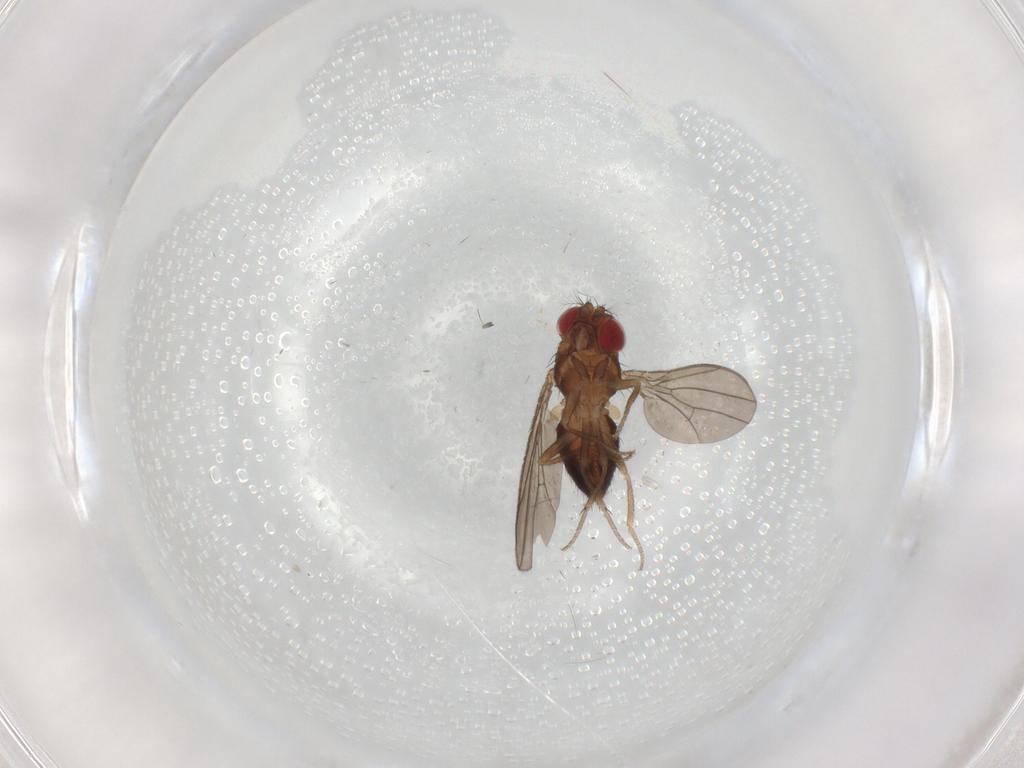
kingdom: Animalia
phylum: Arthropoda
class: Insecta
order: Diptera
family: Drosophilidae
